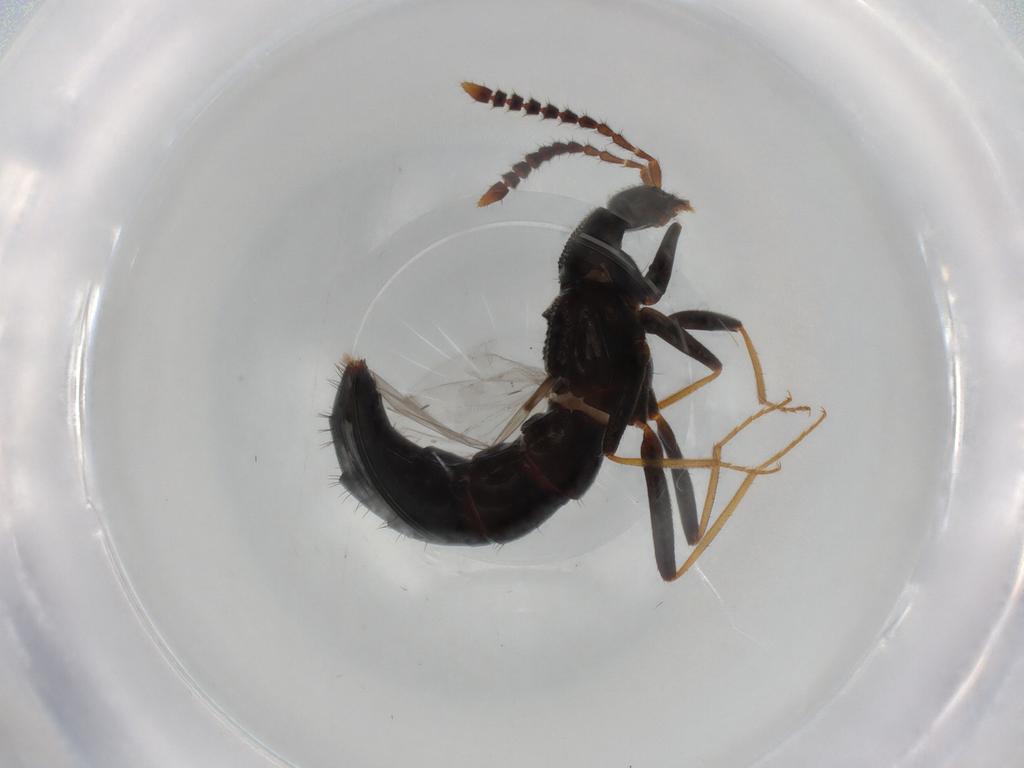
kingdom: Animalia
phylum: Arthropoda
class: Insecta
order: Coleoptera
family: Staphylinidae
